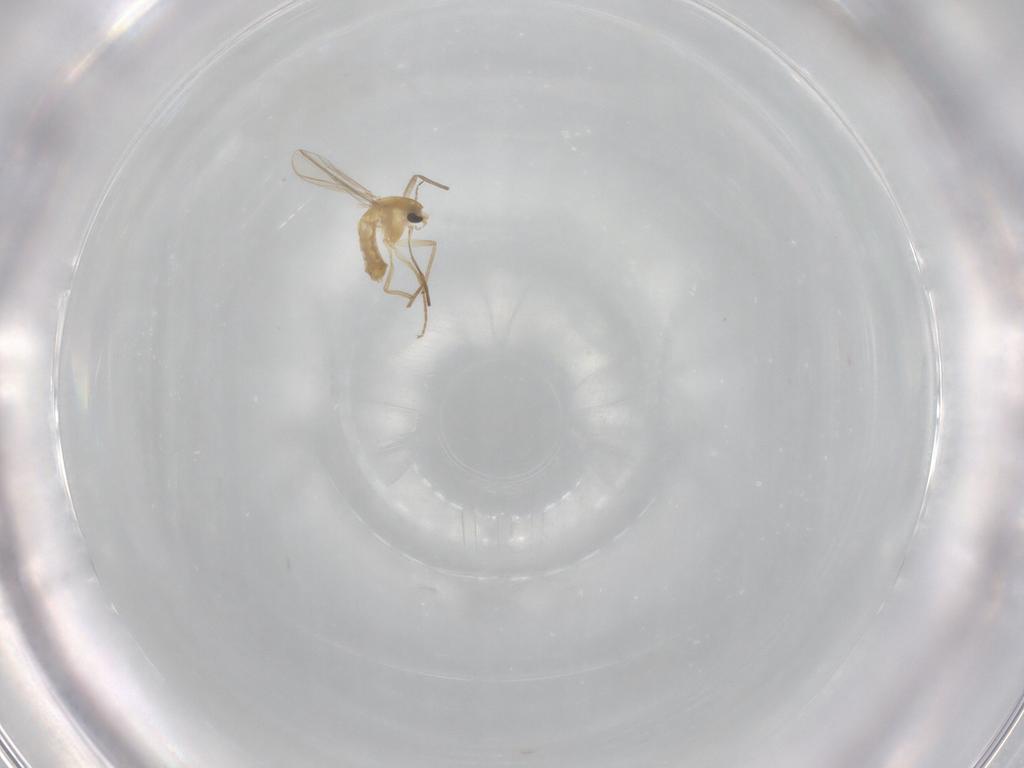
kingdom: Animalia
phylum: Arthropoda
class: Insecta
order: Diptera
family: Chironomidae
